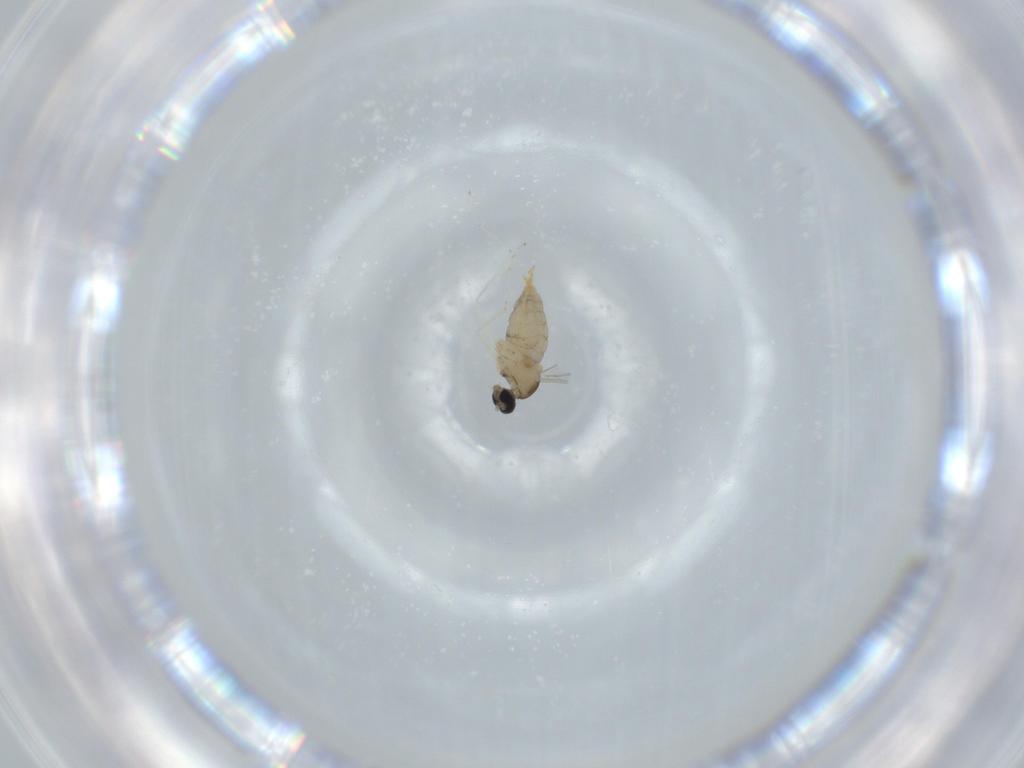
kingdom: Animalia
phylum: Arthropoda
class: Insecta
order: Diptera
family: Cecidomyiidae
